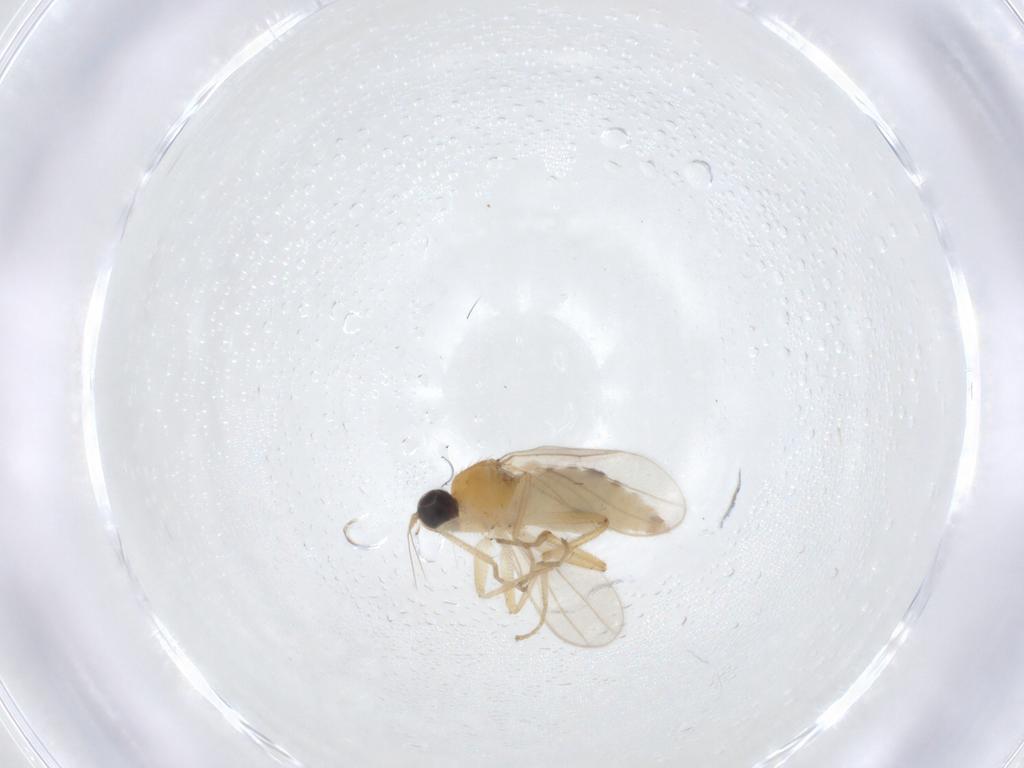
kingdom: Animalia
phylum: Arthropoda
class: Insecta
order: Diptera
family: Hybotidae
